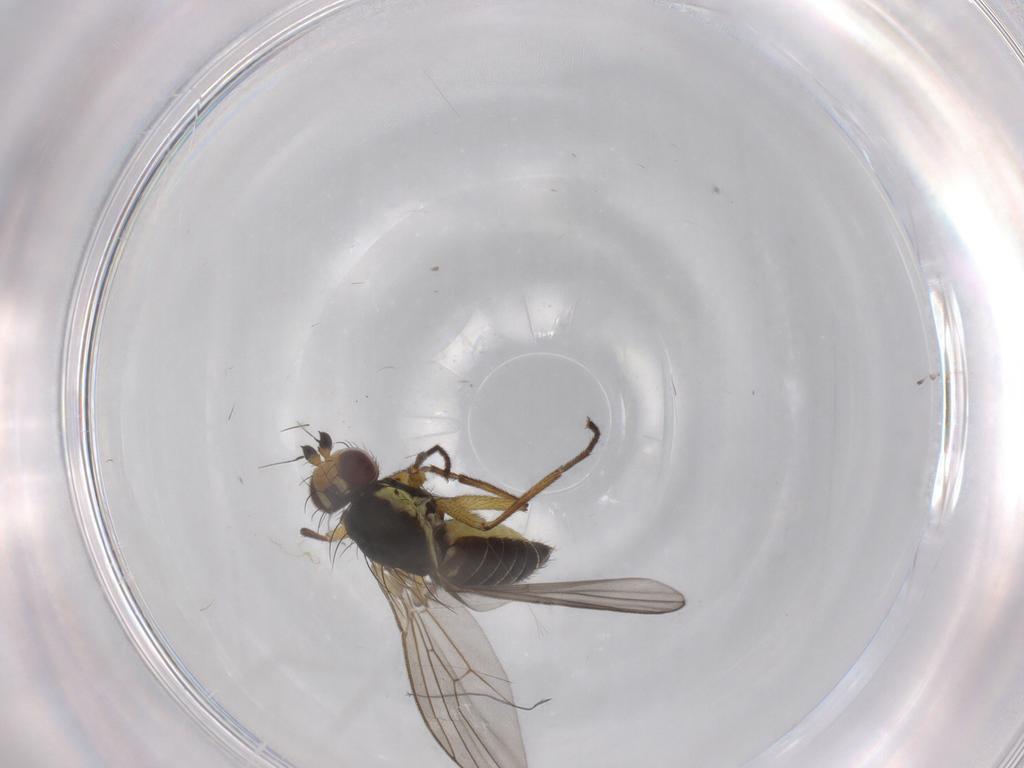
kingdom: Animalia
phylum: Arthropoda
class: Insecta
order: Diptera
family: Agromyzidae
